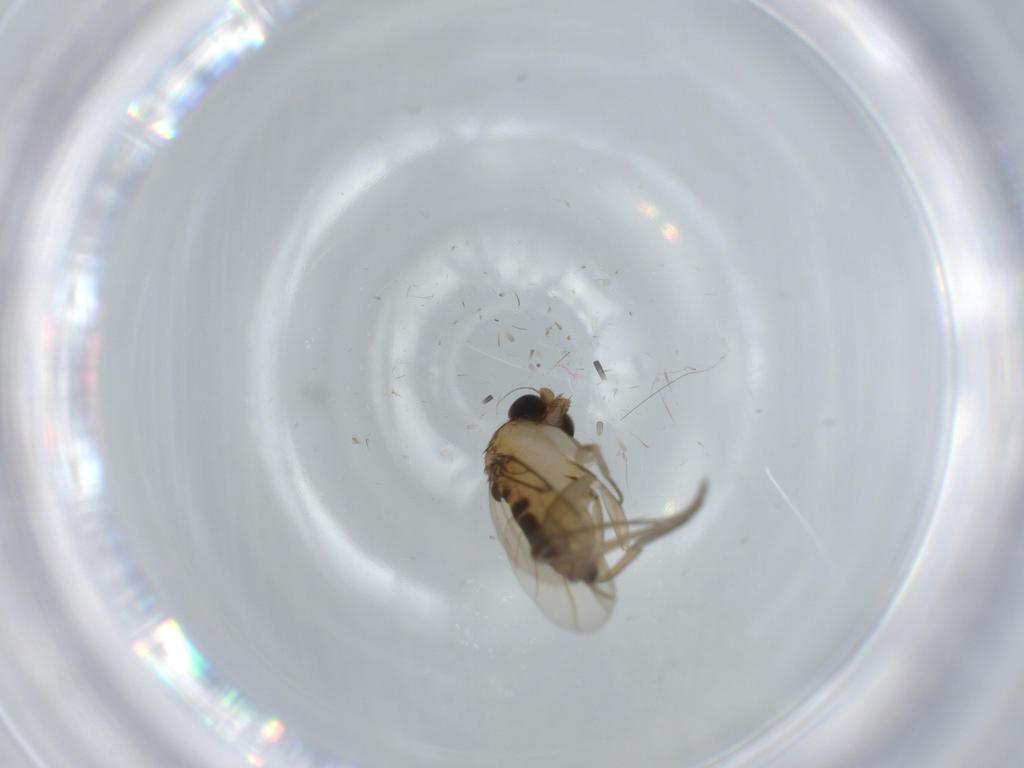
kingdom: Animalia
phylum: Arthropoda
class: Insecta
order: Diptera
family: Phoridae
